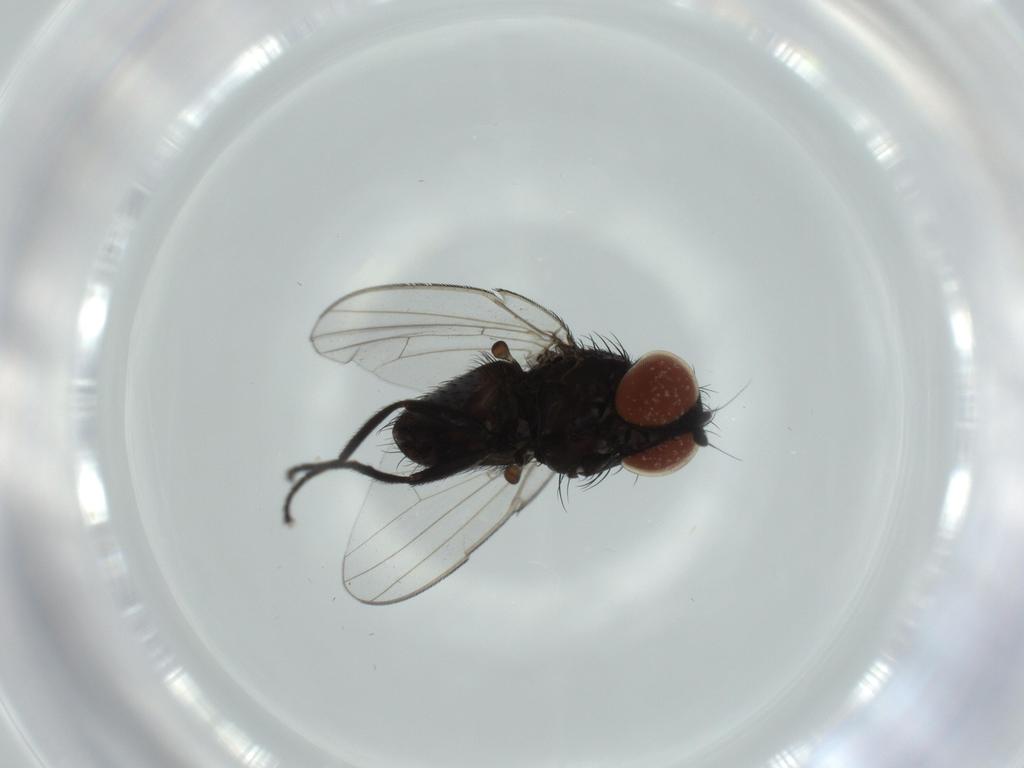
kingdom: Animalia
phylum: Arthropoda
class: Insecta
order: Diptera
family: Milichiidae
